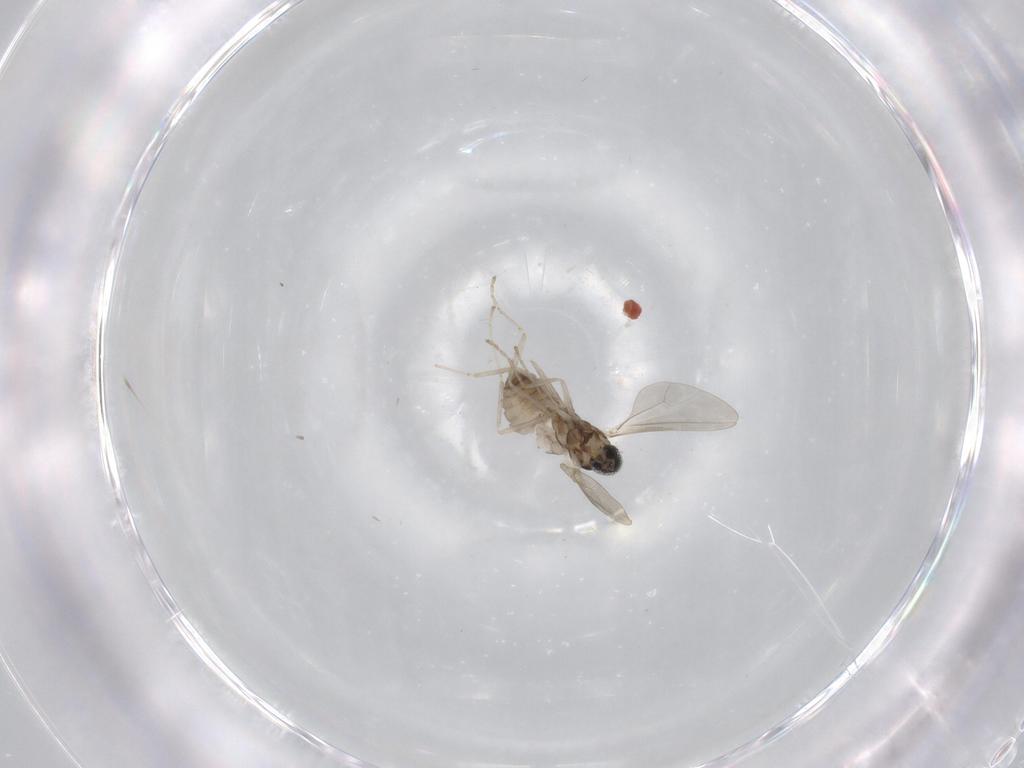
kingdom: Animalia
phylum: Arthropoda
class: Insecta
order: Diptera
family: Cecidomyiidae
